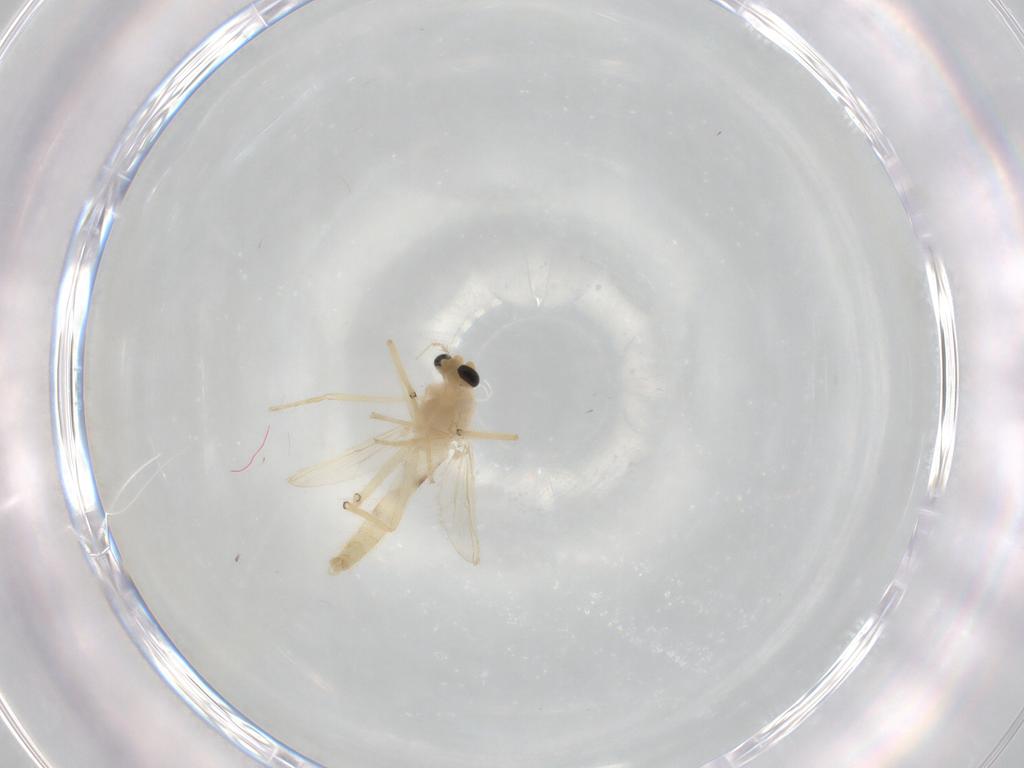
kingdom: Animalia
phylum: Arthropoda
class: Insecta
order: Diptera
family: Chironomidae
